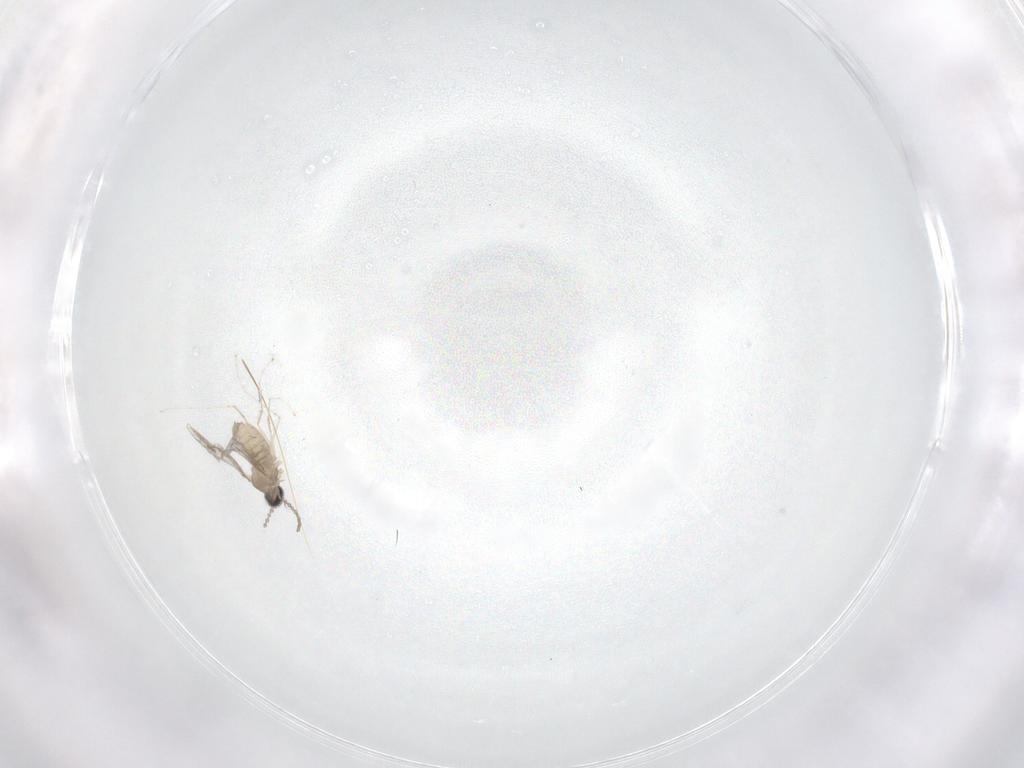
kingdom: Animalia
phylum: Arthropoda
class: Insecta
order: Diptera
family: Cecidomyiidae
